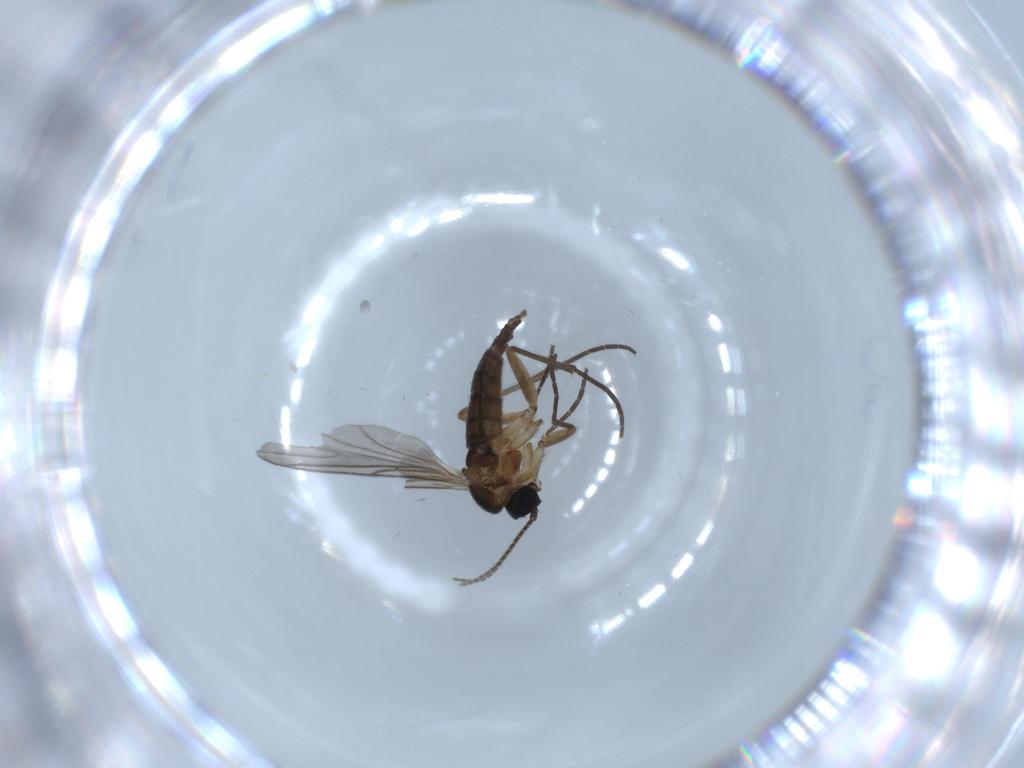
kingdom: Animalia
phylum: Arthropoda
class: Insecta
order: Diptera
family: Sciaridae
